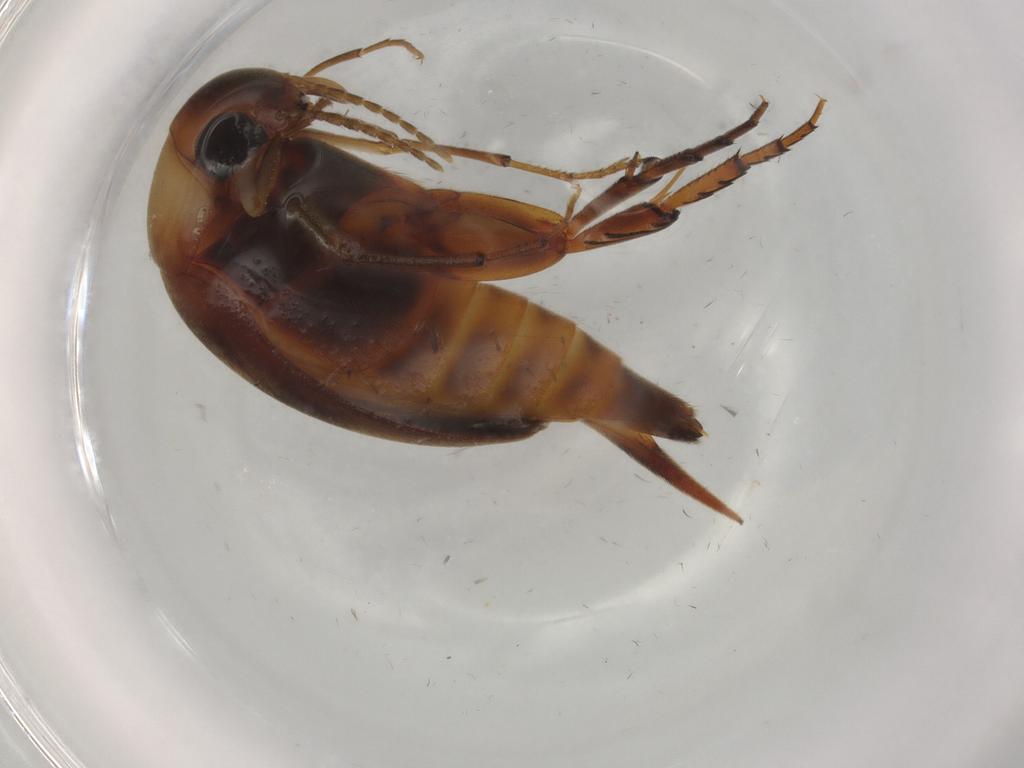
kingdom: Animalia
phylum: Arthropoda
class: Insecta
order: Coleoptera
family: Mordellidae
